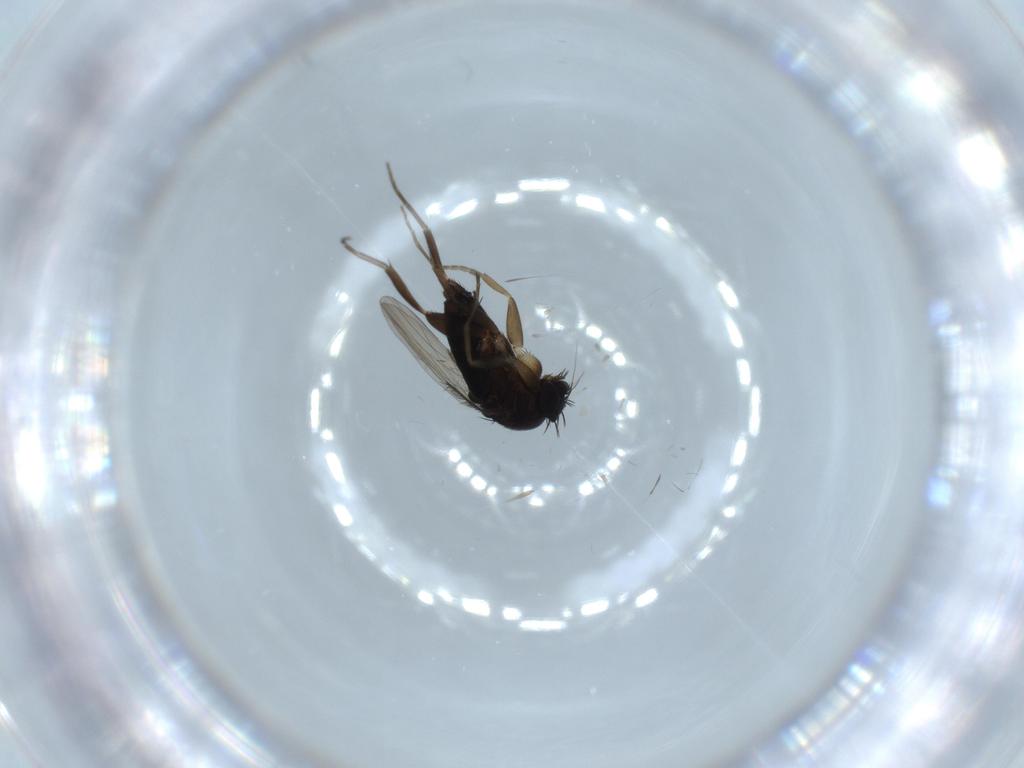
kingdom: Animalia
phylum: Arthropoda
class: Insecta
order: Diptera
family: Phoridae
